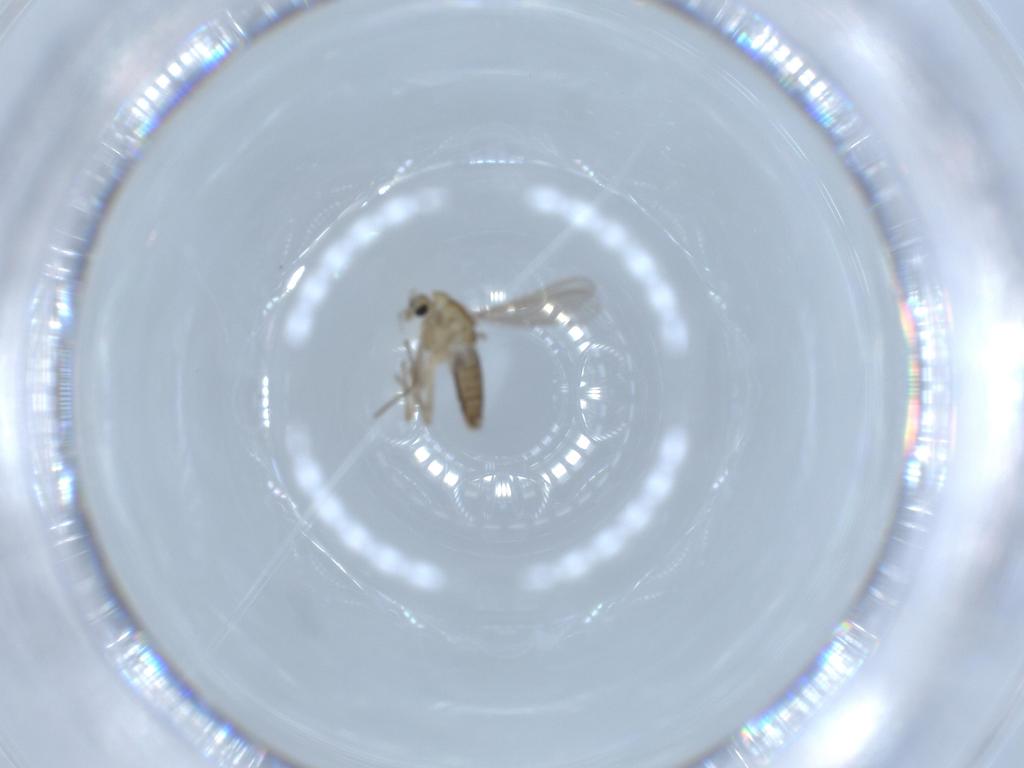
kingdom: Animalia
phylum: Arthropoda
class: Insecta
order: Diptera
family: Chironomidae
